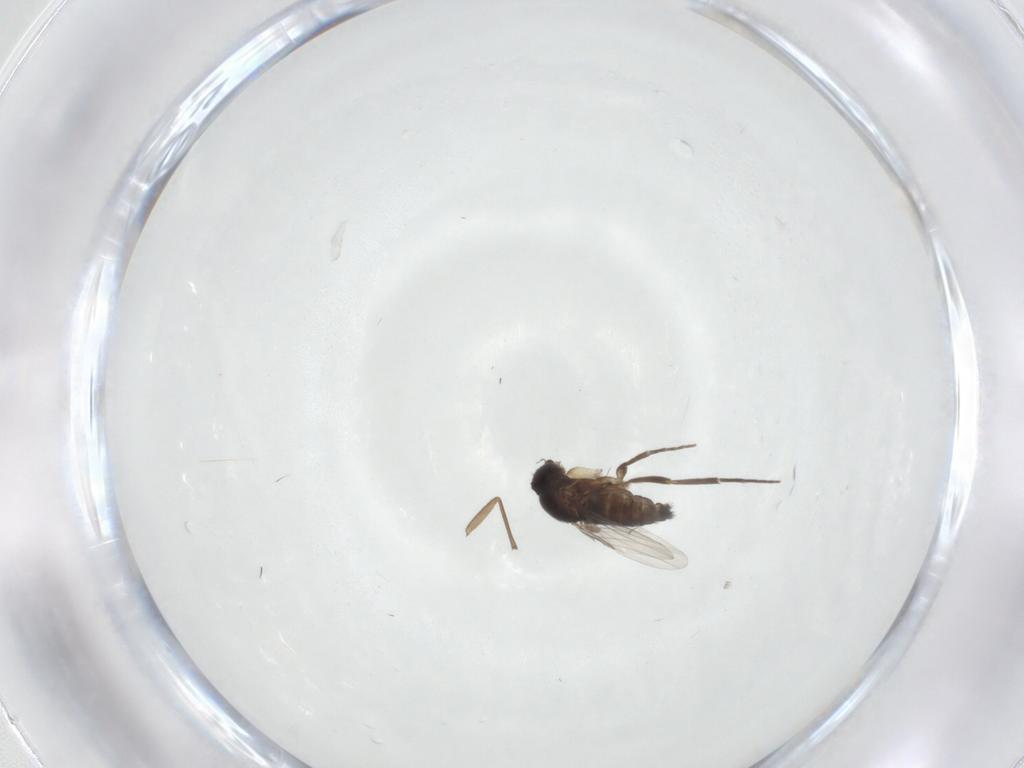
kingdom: Animalia
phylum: Arthropoda
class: Insecta
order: Diptera
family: Phoridae
